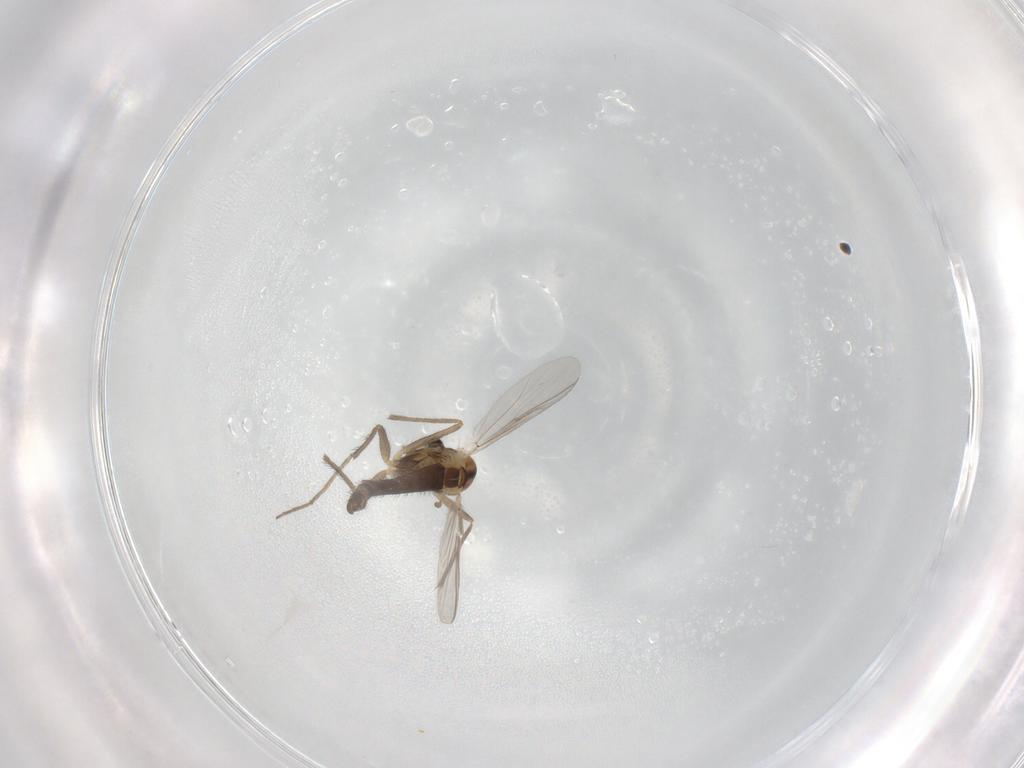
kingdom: Animalia
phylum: Arthropoda
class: Insecta
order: Diptera
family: Chironomidae
